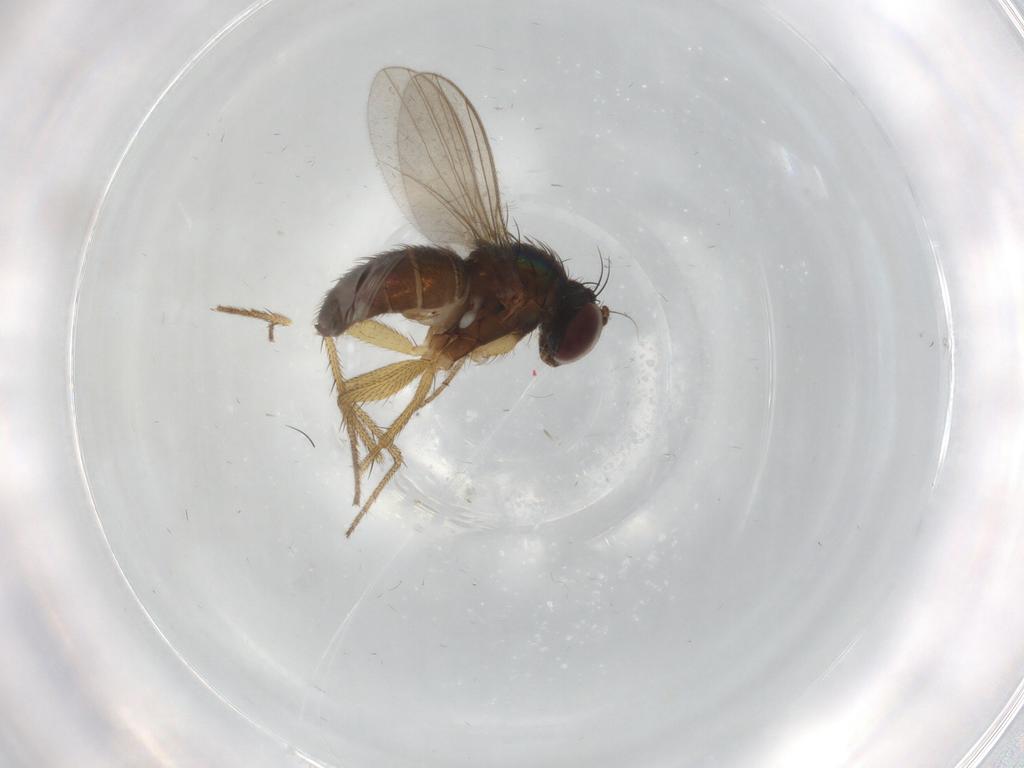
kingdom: Animalia
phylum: Arthropoda
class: Insecta
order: Diptera
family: Dolichopodidae
